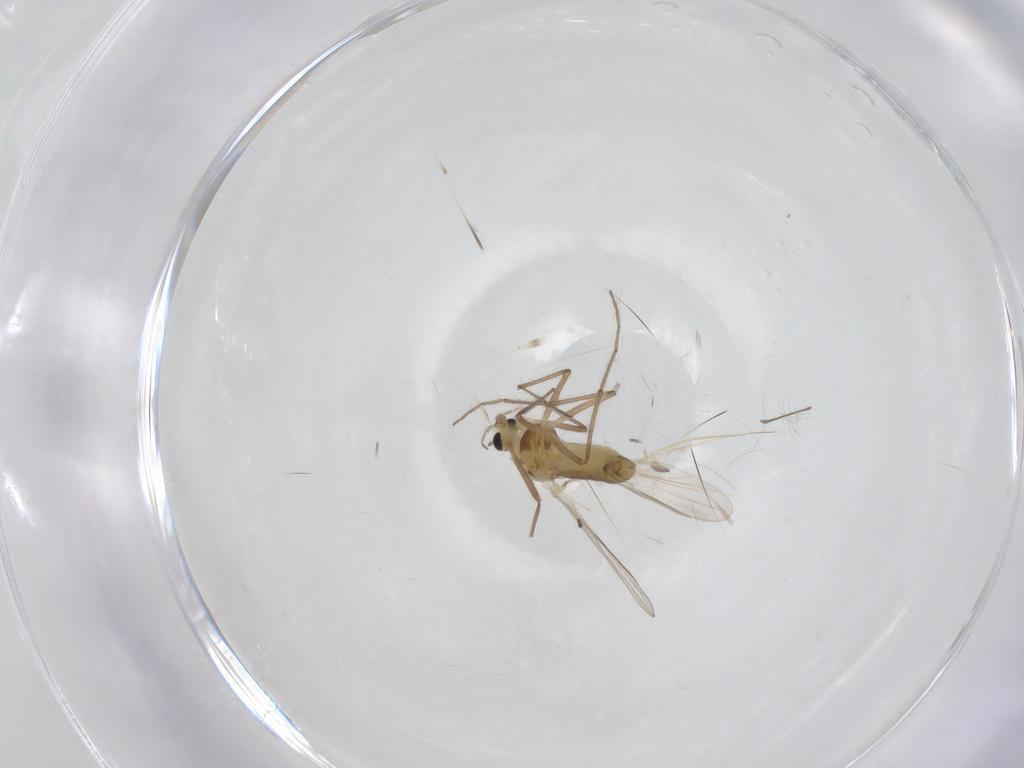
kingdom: Animalia
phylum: Arthropoda
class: Insecta
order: Diptera
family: Chironomidae
